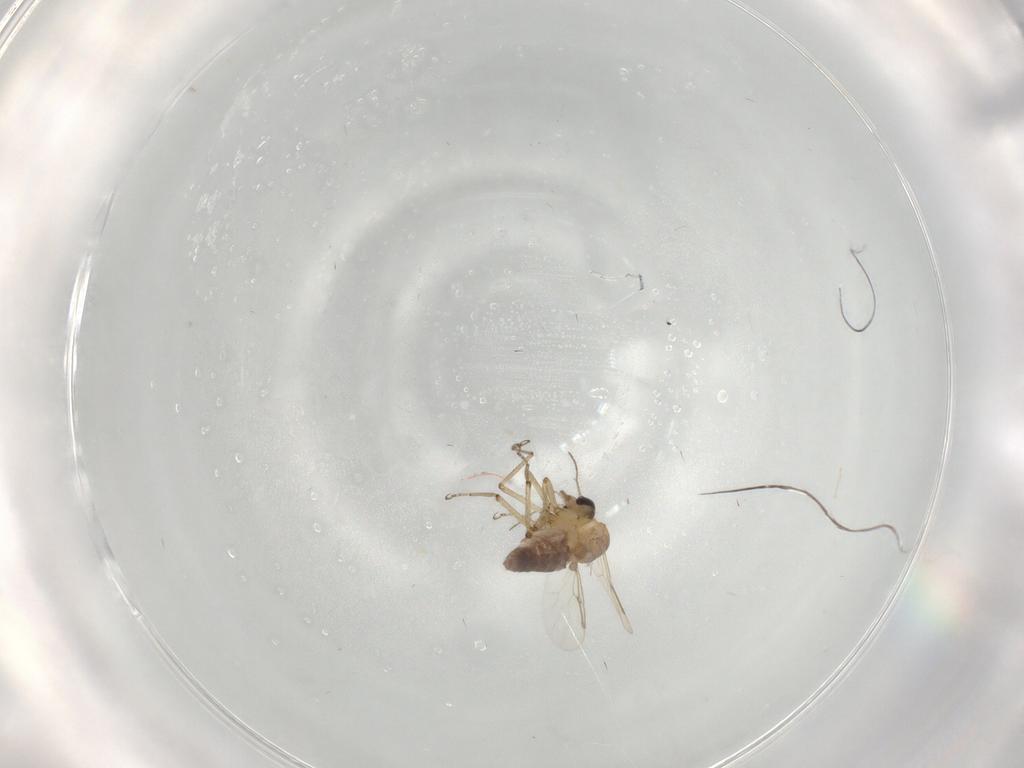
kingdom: Animalia
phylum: Arthropoda
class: Insecta
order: Diptera
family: Ceratopogonidae
